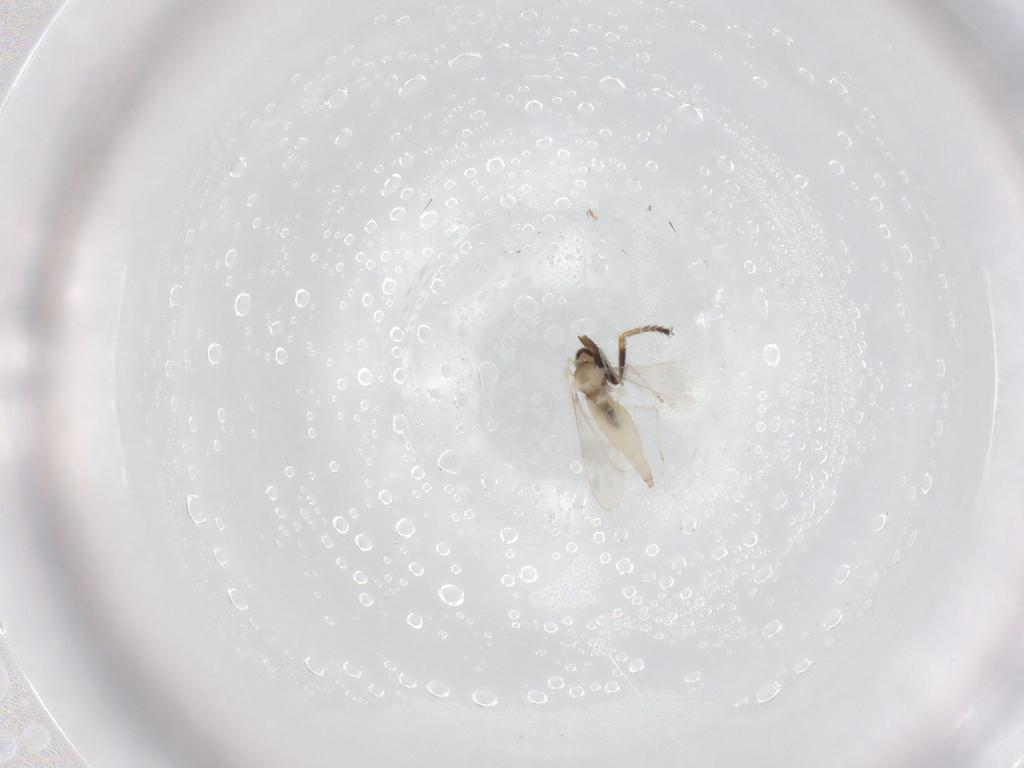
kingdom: Animalia
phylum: Arthropoda
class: Insecta
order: Diptera
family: Cecidomyiidae
